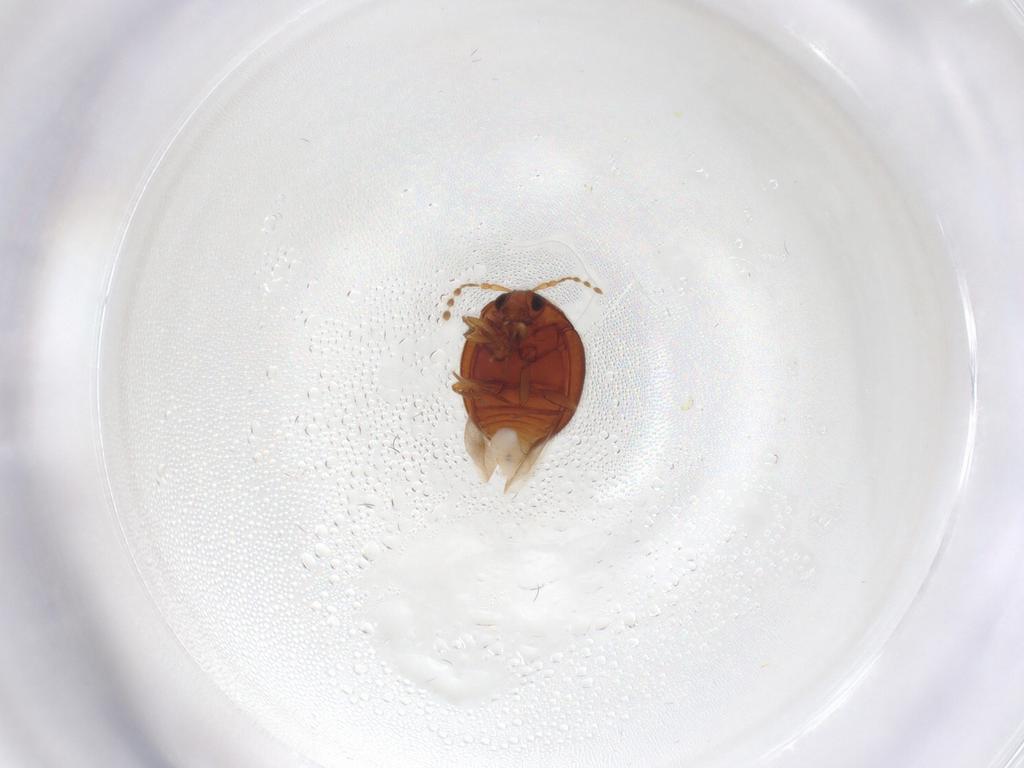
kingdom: Animalia
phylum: Arthropoda
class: Insecta
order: Coleoptera
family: Anamorphidae
